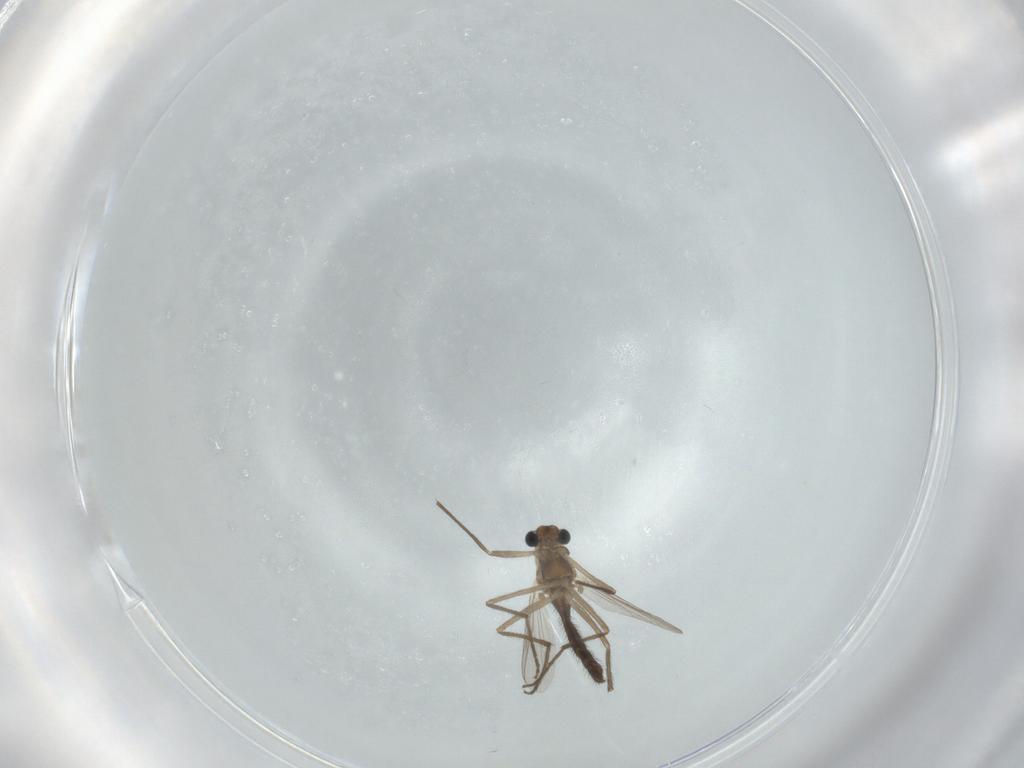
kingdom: Animalia
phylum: Arthropoda
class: Insecta
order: Diptera
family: Chironomidae
